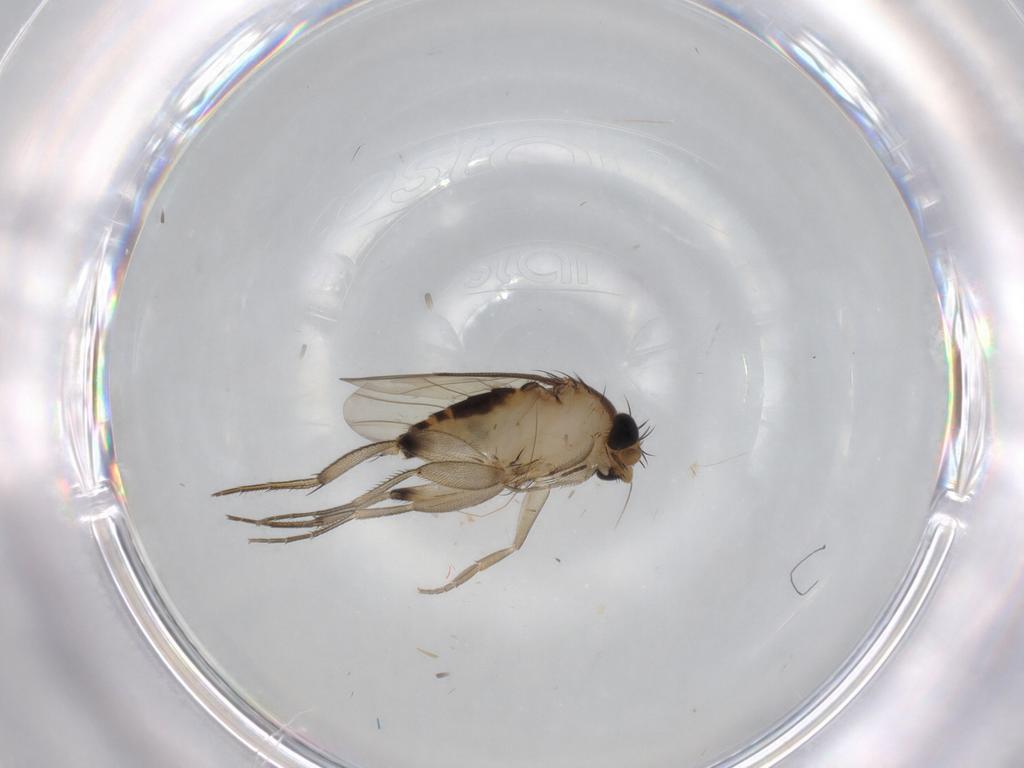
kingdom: Animalia
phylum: Arthropoda
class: Insecta
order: Diptera
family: Phoridae
